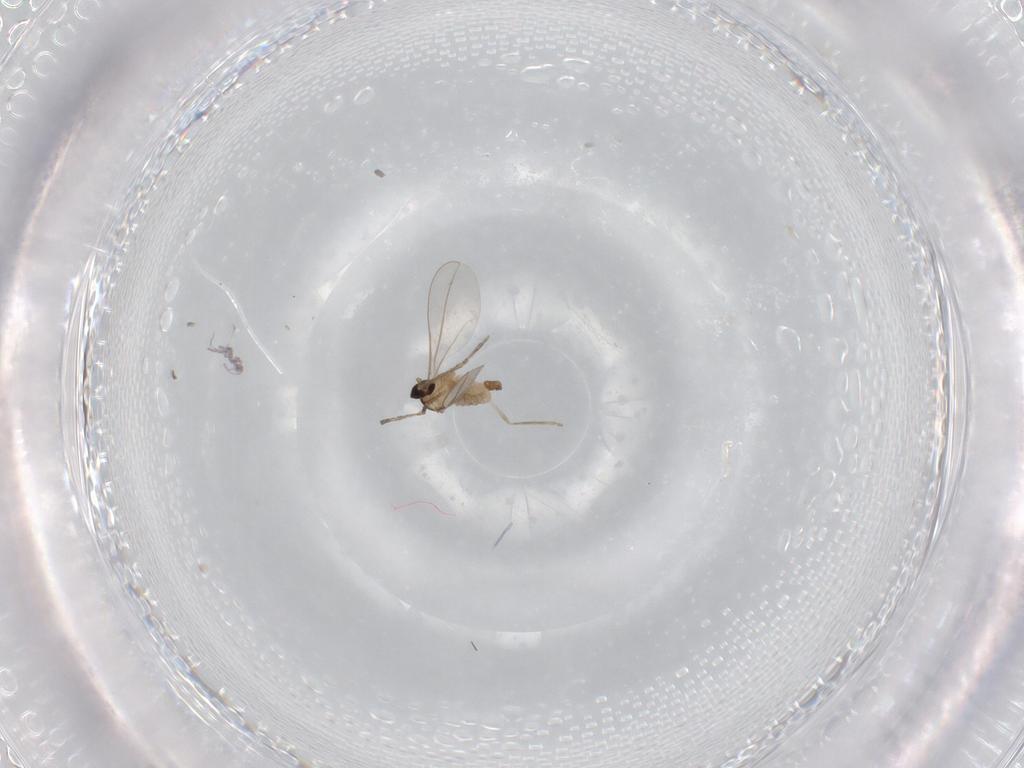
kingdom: Animalia
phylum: Arthropoda
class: Insecta
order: Diptera
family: Cecidomyiidae
